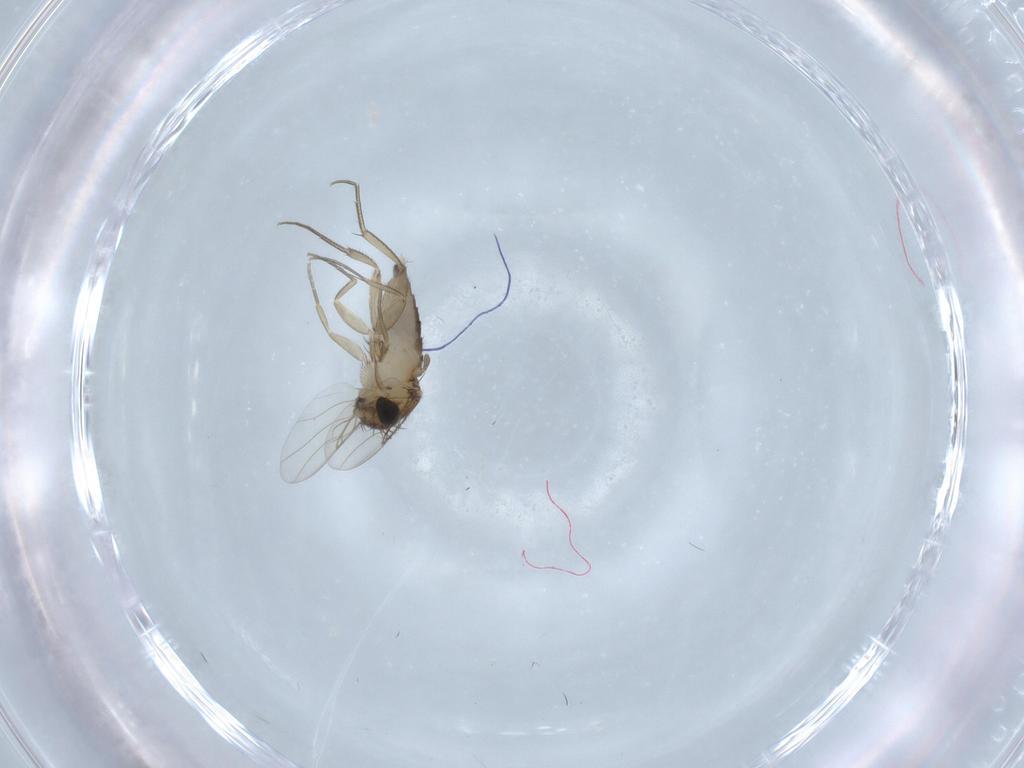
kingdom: Animalia
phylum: Arthropoda
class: Insecta
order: Diptera
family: Phoridae
